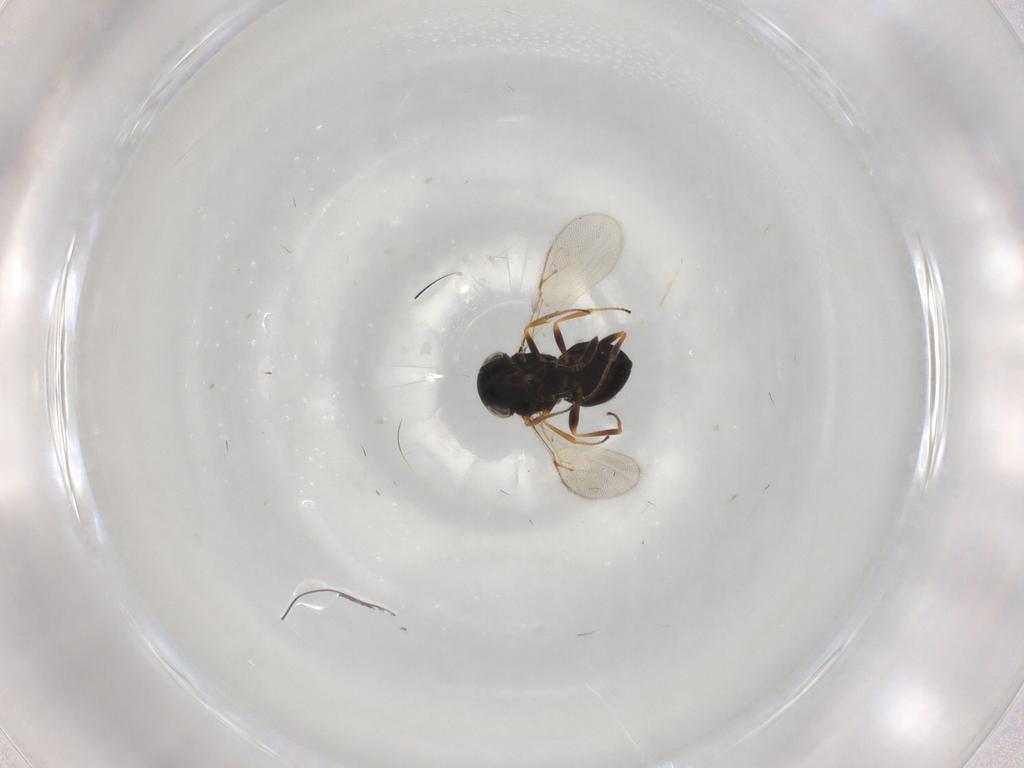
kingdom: Animalia
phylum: Arthropoda
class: Insecta
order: Hymenoptera
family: Scelionidae
